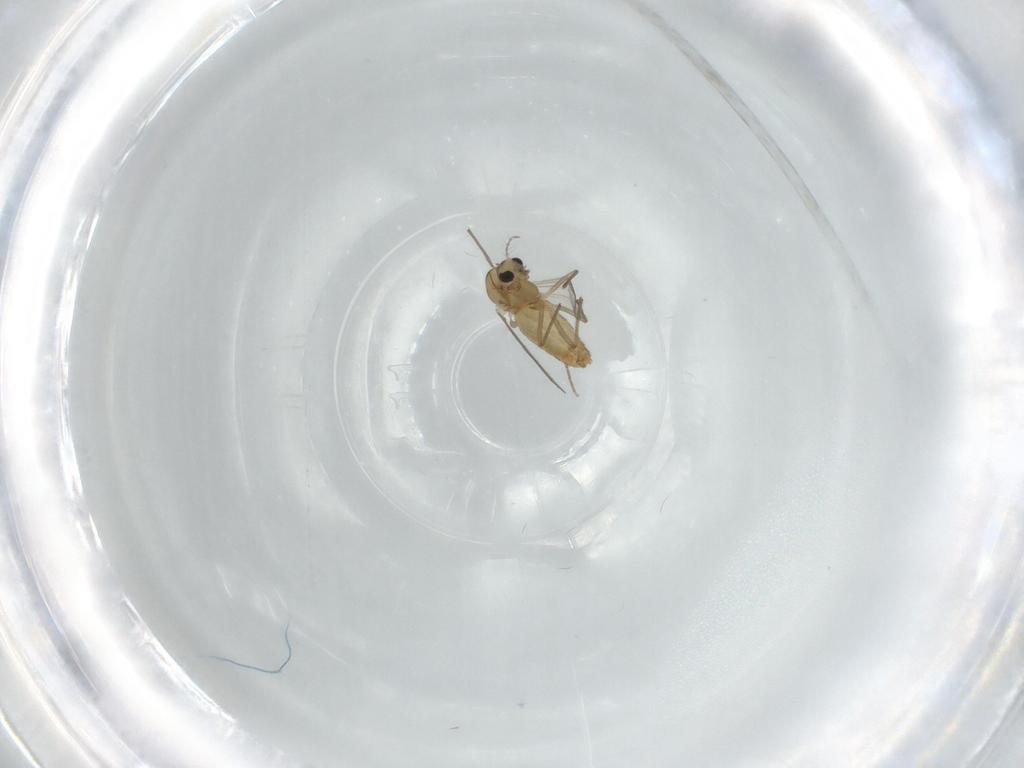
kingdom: Animalia
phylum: Arthropoda
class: Insecta
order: Diptera
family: Chironomidae
